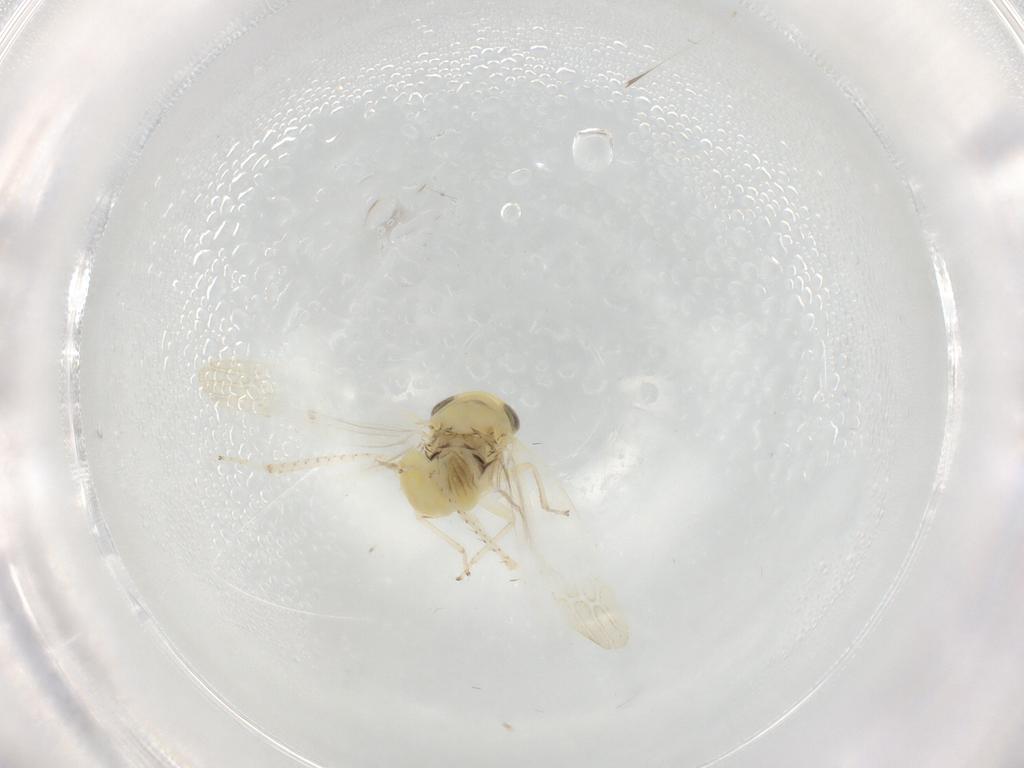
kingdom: Animalia
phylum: Arthropoda
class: Insecta
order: Hemiptera
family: Cicadellidae
